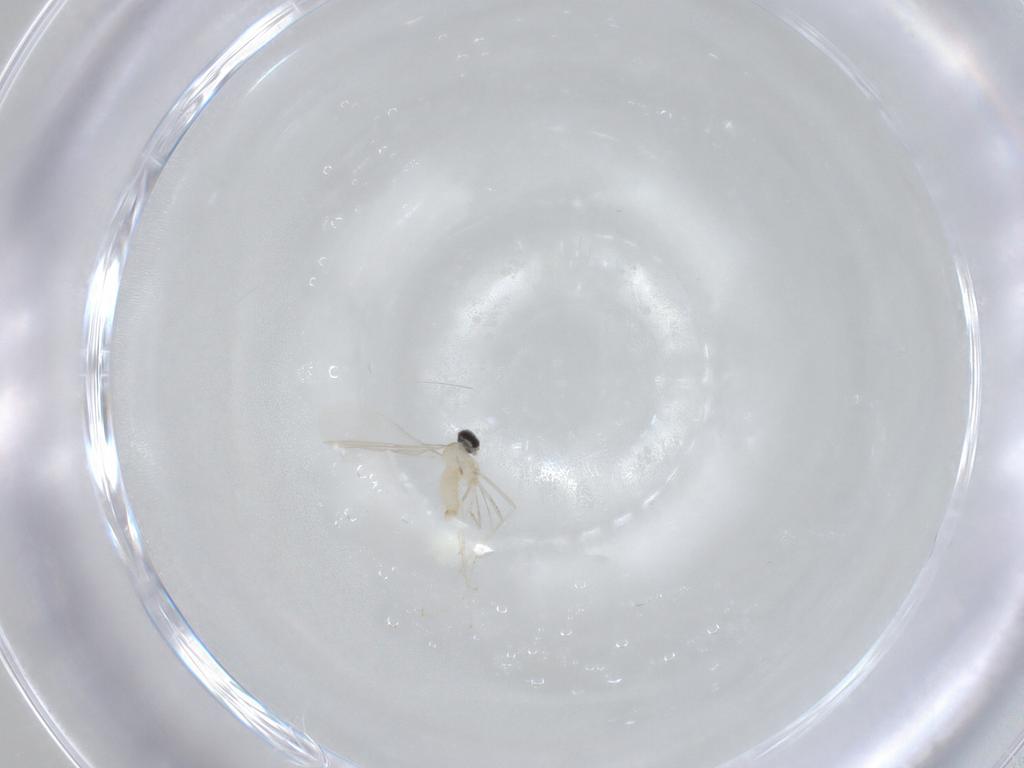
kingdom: Animalia
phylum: Arthropoda
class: Insecta
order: Diptera
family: Cecidomyiidae
